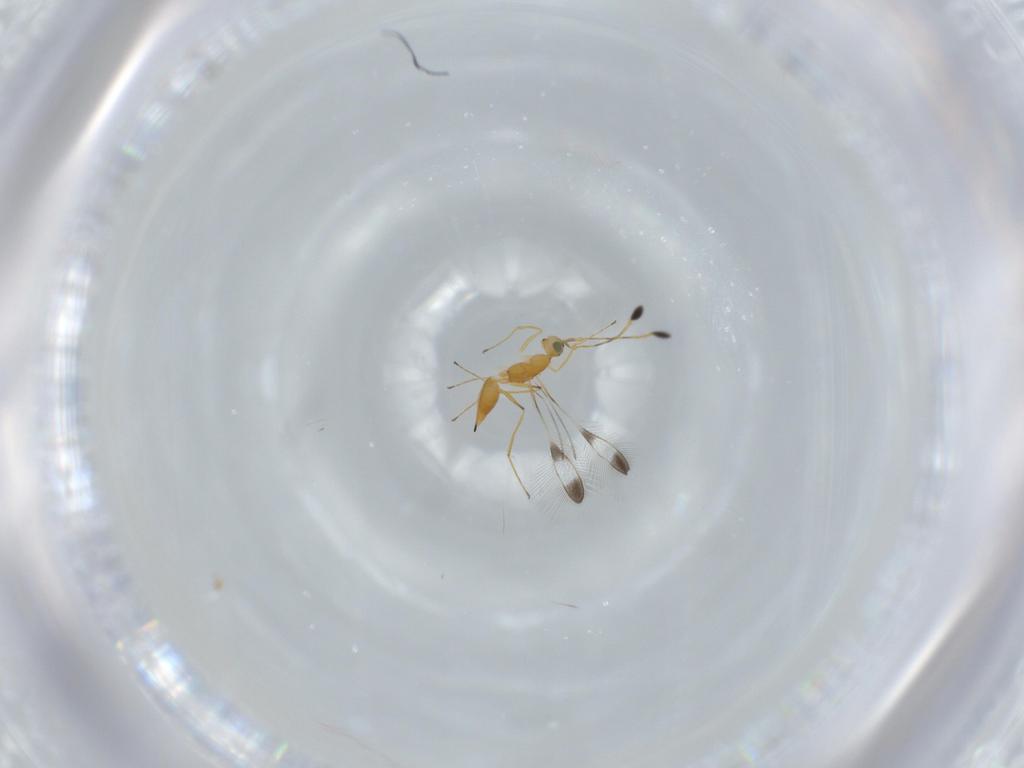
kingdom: Animalia
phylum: Arthropoda
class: Insecta
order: Hymenoptera
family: Mymaridae
